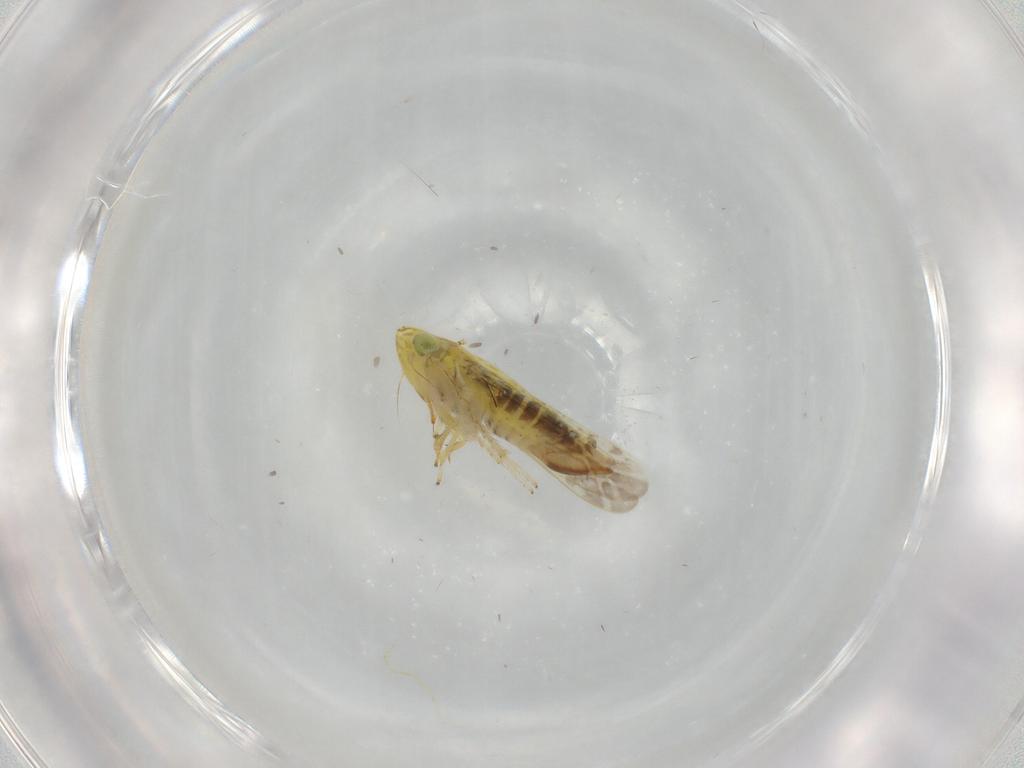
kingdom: Animalia
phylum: Arthropoda
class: Insecta
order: Hemiptera
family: Cicadellidae
